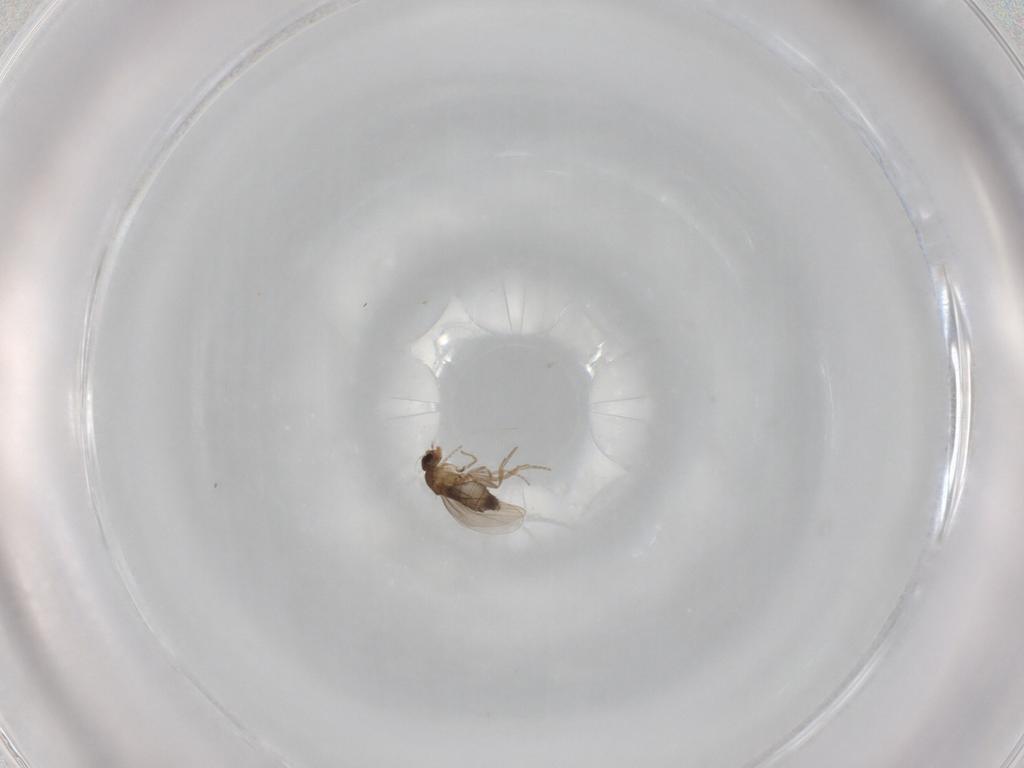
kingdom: Animalia
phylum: Arthropoda
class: Insecta
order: Diptera
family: Phoridae
